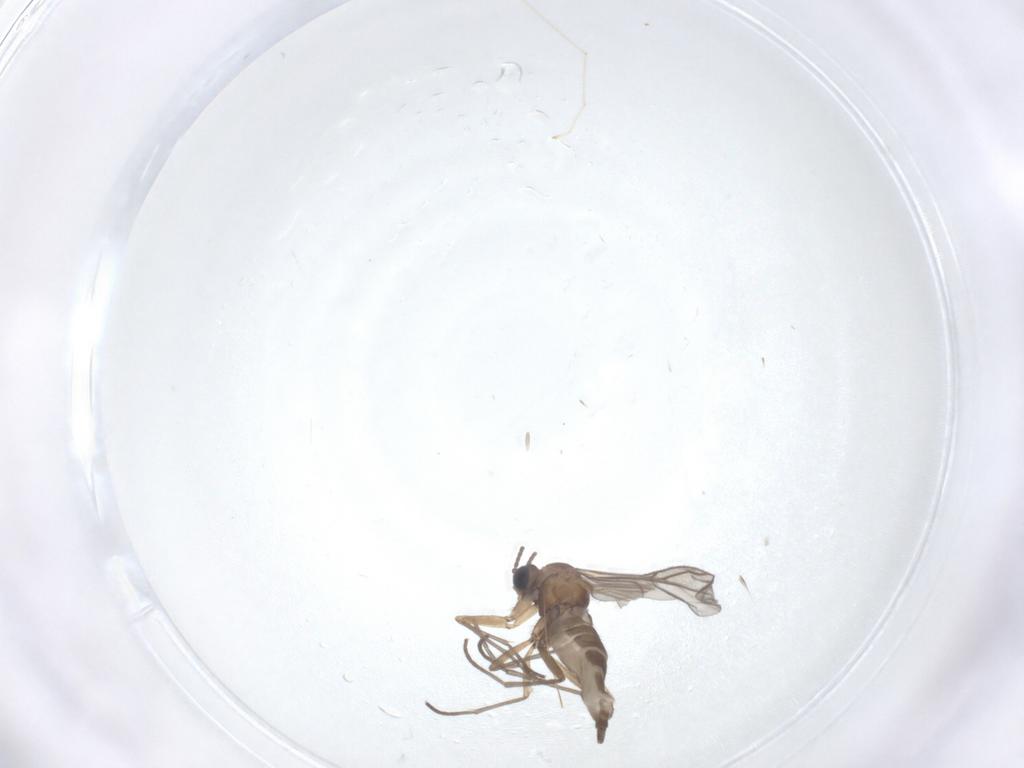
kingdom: Animalia
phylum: Arthropoda
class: Insecta
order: Diptera
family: Sciaridae
